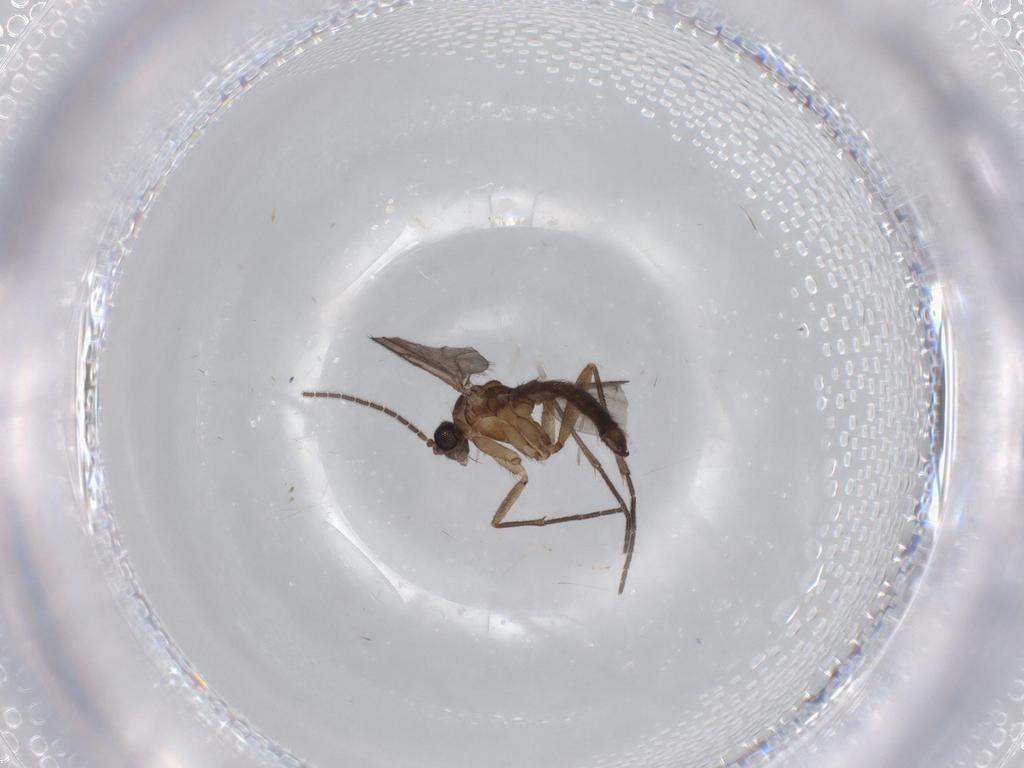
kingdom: Animalia
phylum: Arthropoda
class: Insecta
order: Diptera
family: Cecidomyiidae
